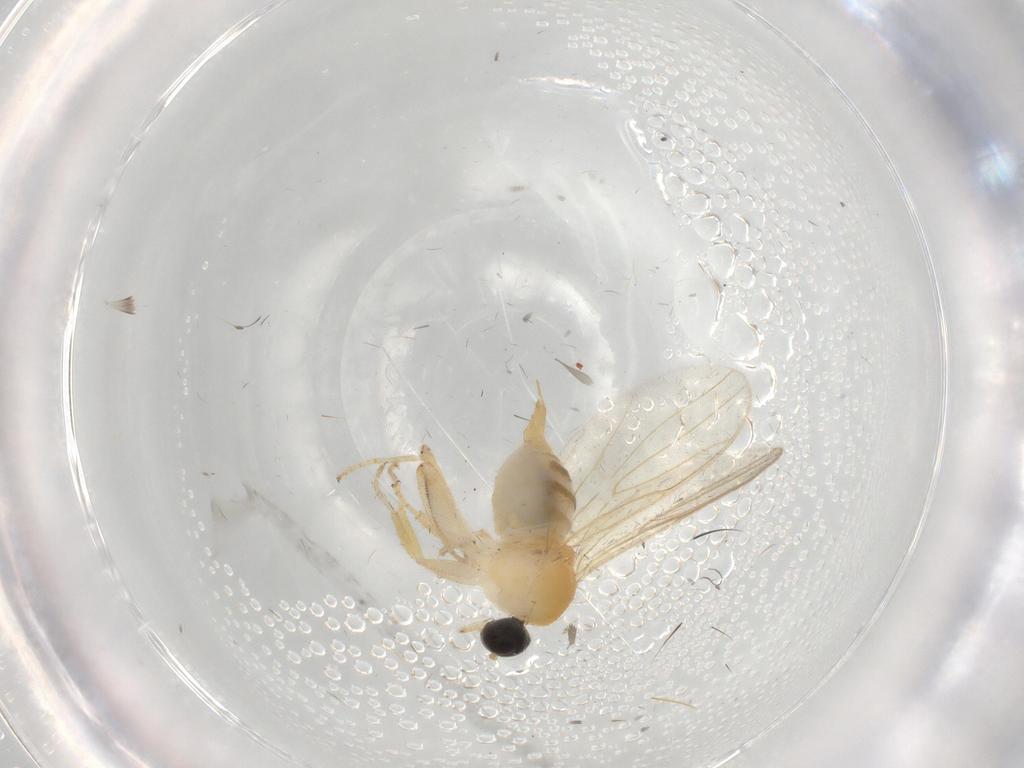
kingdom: Animalia
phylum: Arthropoda
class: Insecta
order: Diptera
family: Hybotidae
